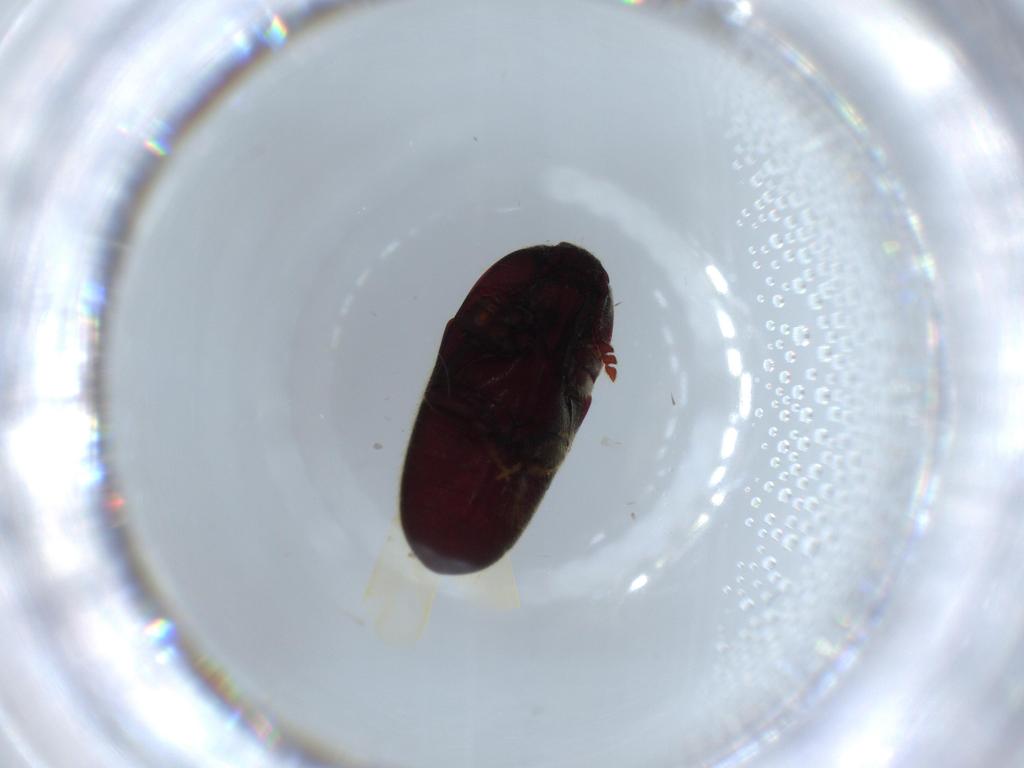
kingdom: Animalia
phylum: Arthropoda
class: Insecta
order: Coleoptera
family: Throscidae
